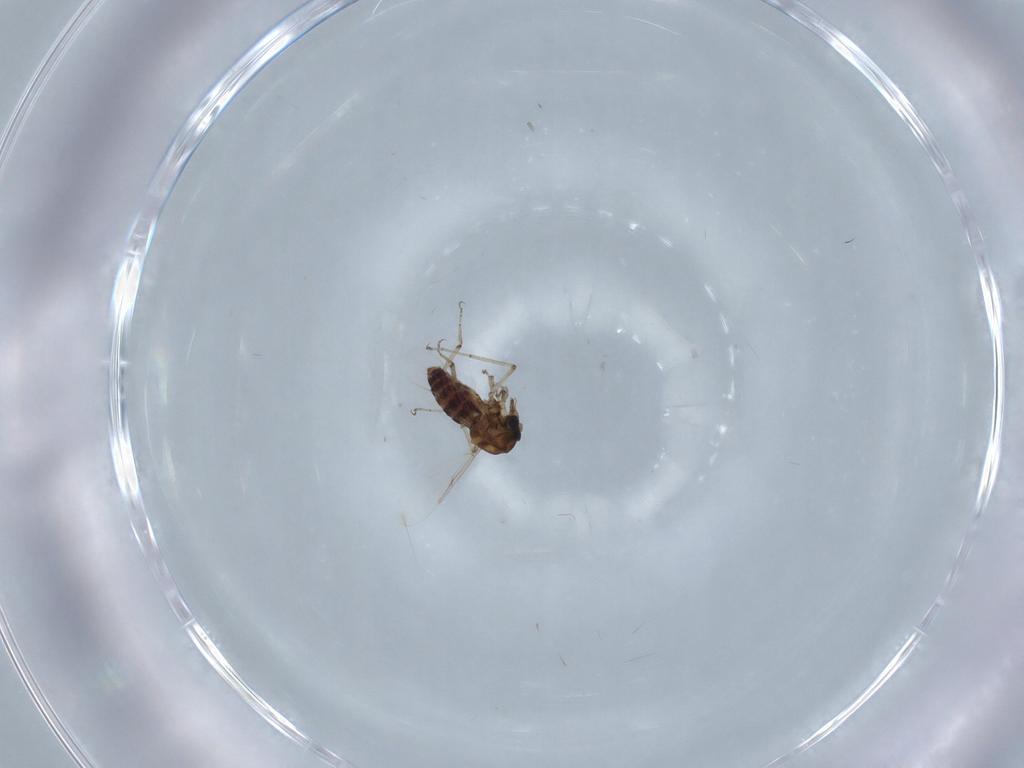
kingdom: Animalia
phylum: Arthropoda
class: Insecta
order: Diptera
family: Ceratopogonidae
